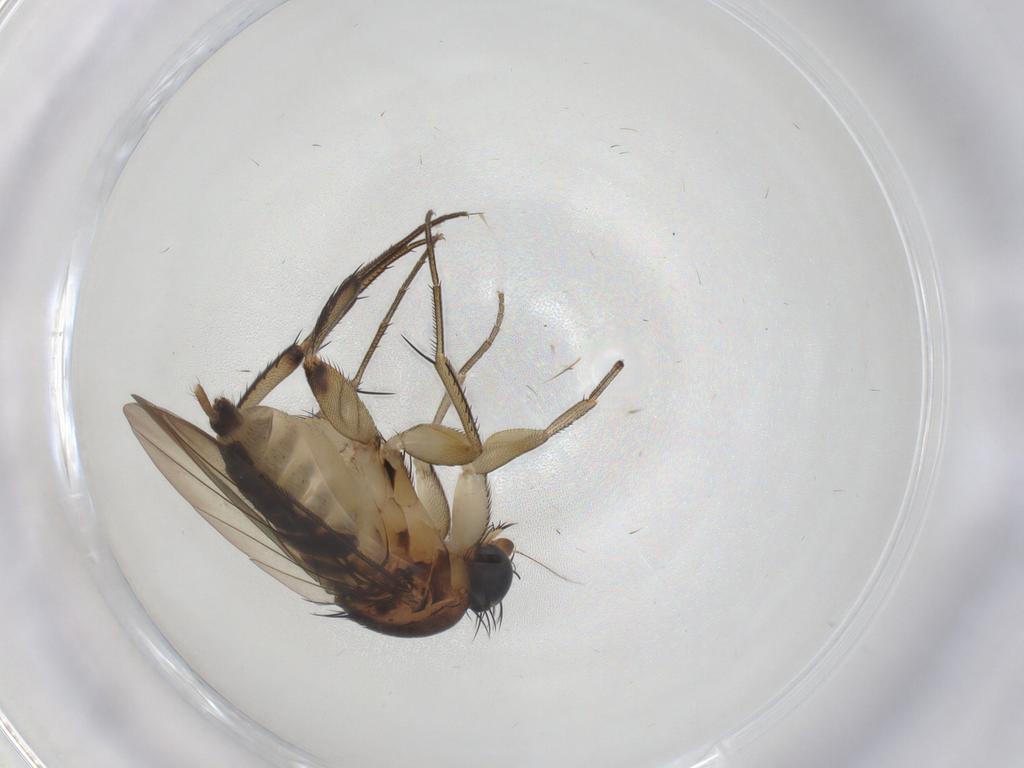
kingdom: Animalia
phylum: Arthropoda
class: Insecta
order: Diptera
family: Phoridae
